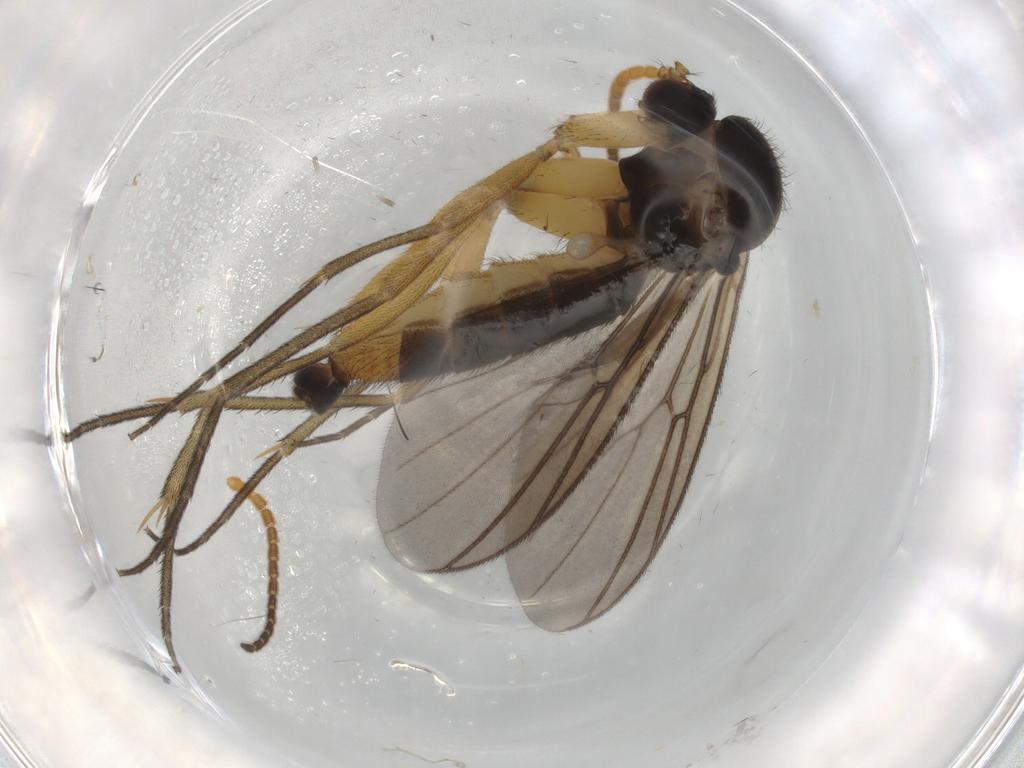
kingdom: Animalia
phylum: Arthropoda
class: Insecta
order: Diptera
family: Mycetophilidae
